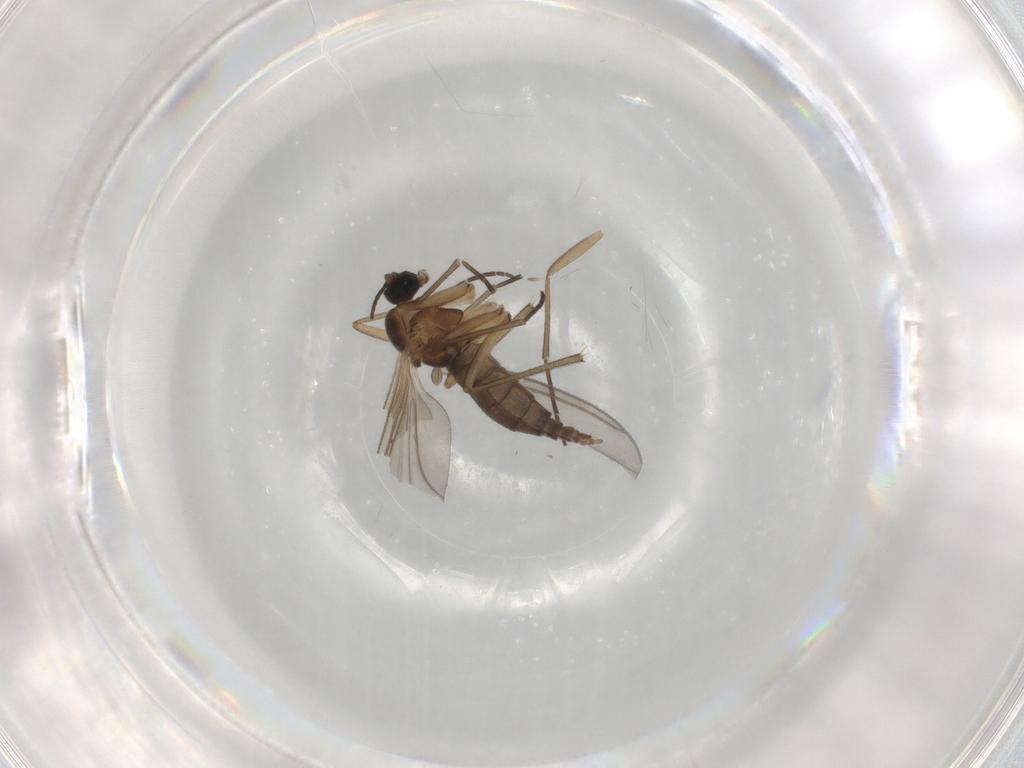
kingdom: Animalia
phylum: Arthropoda
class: Insecta
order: Diptera
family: Sciaridae
